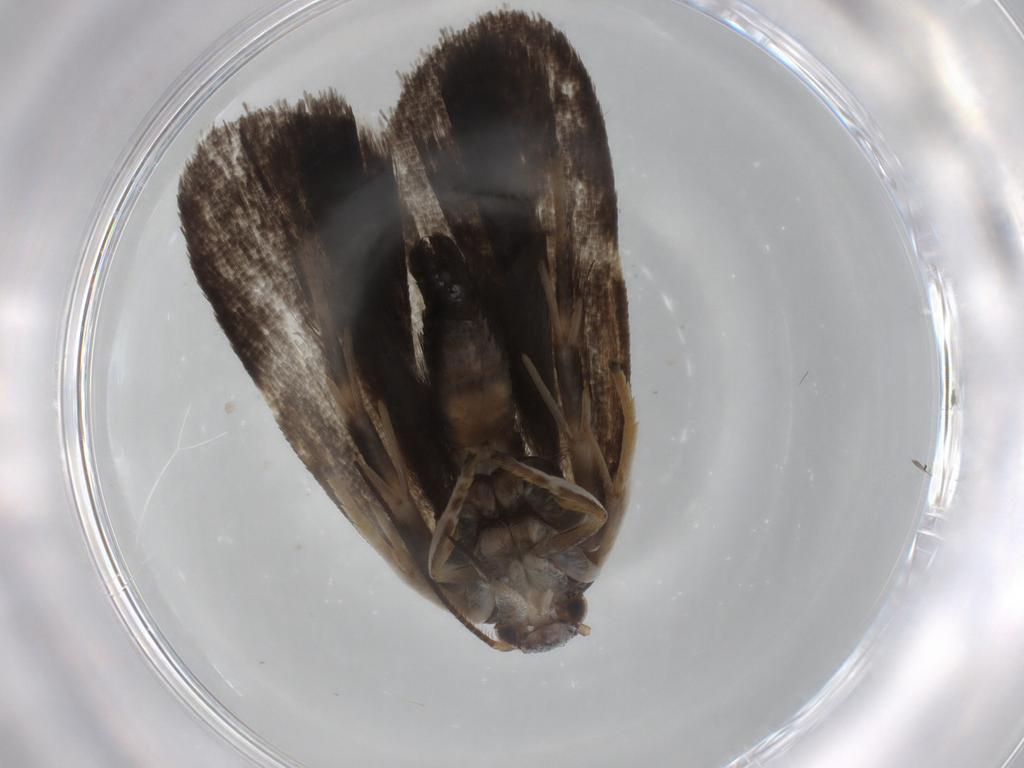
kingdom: Animalia
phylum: Arthropoda
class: Insecta
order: Lepidoptera
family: Depressariidae
